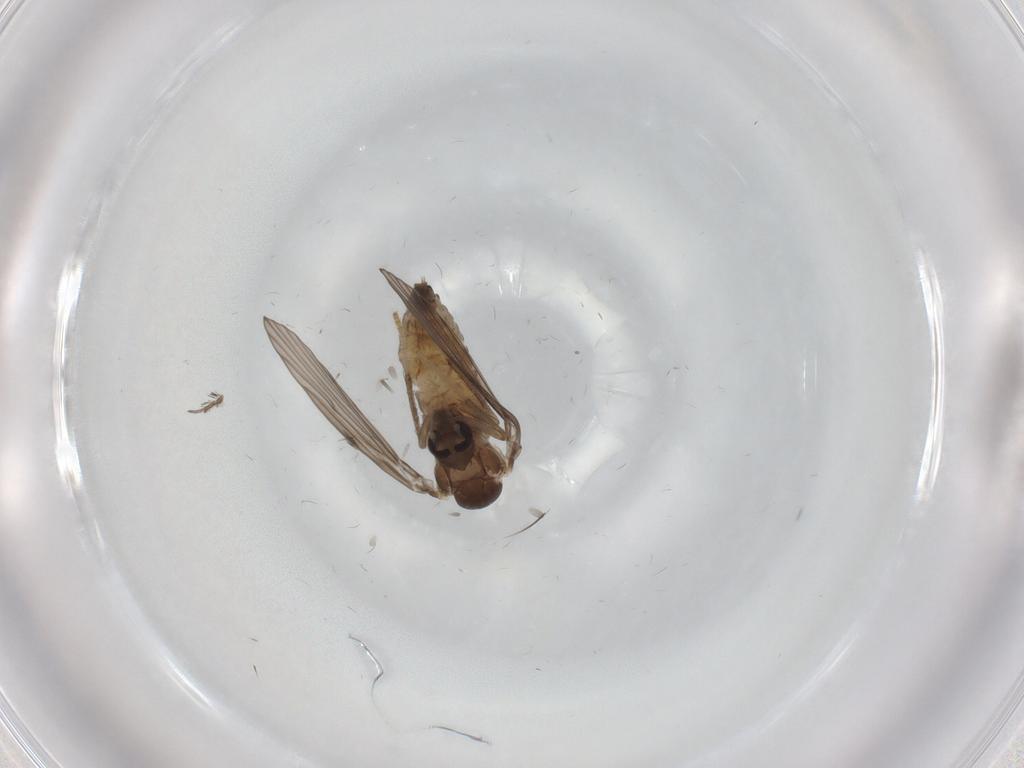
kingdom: Animalia
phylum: Arthropoda
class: Insecta
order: Diptera
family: Psychodidae
